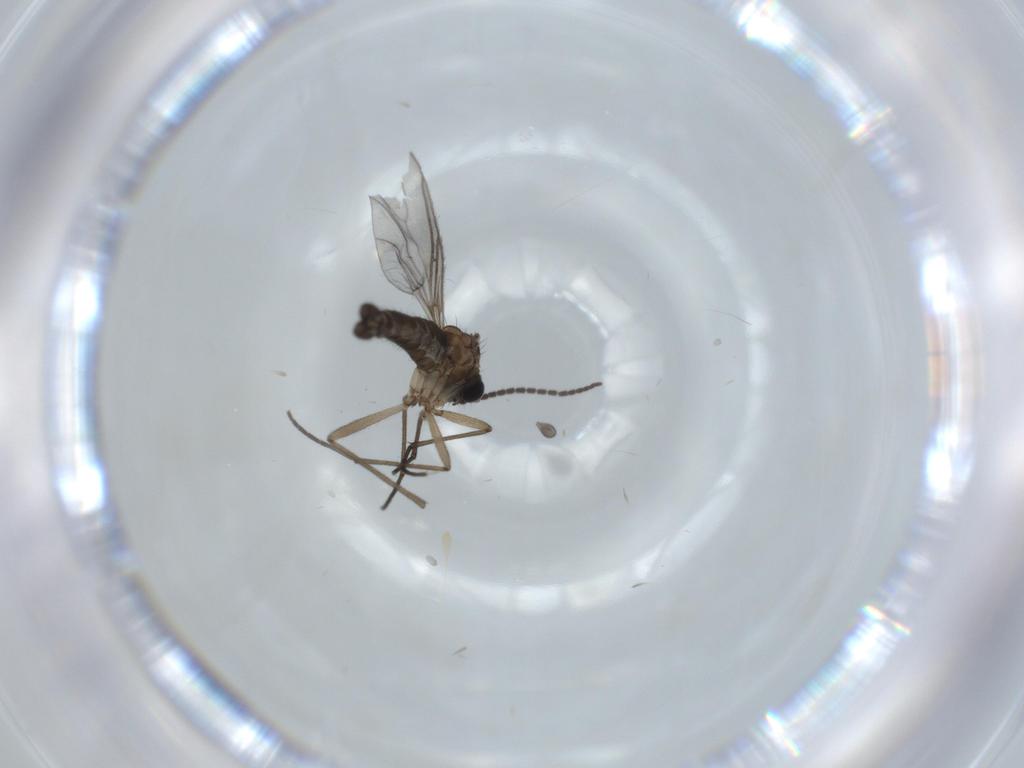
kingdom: Animalia
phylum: Arthropoda
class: Insecta
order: Diptera
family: Sciaridae
